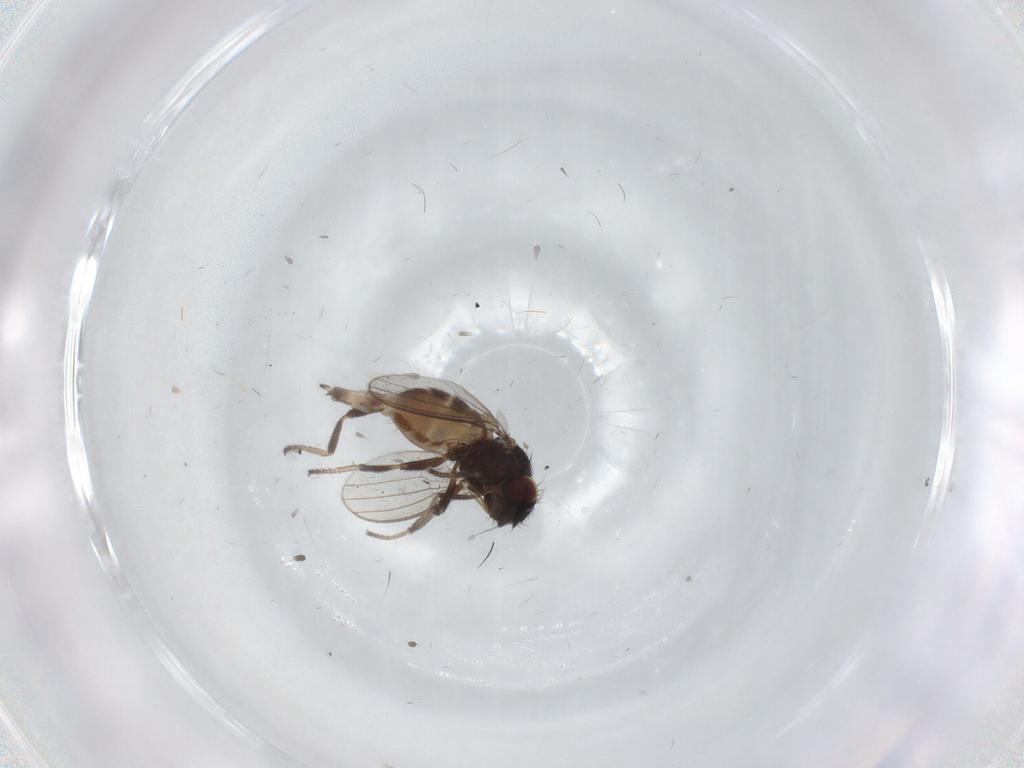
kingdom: Animalia
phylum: Arthropoda
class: Insecta
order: Diptera
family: Milichiidae
